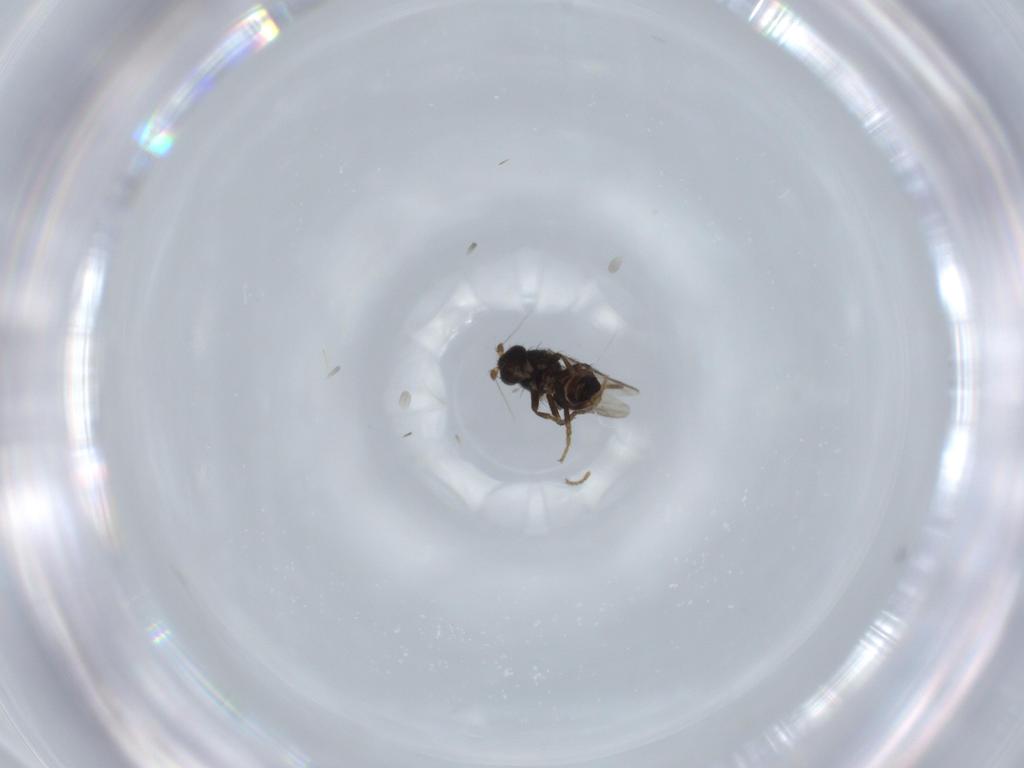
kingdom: Animalia
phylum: Arthropoda
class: Insecta
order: Diptera
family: Sphaeroceridae
